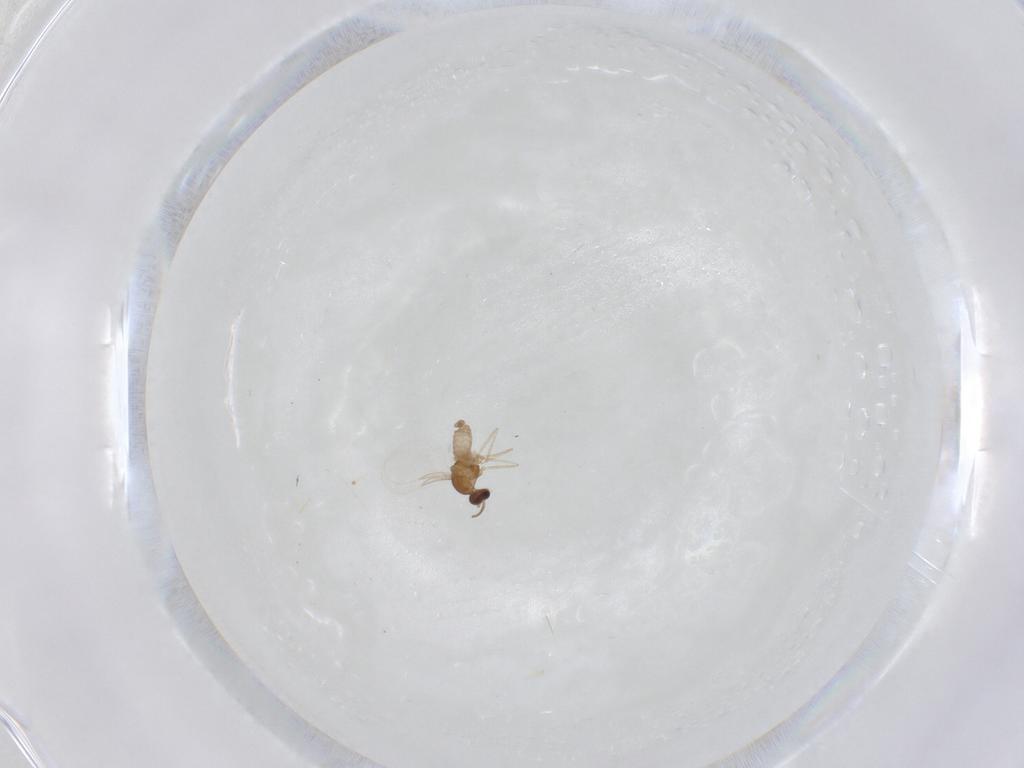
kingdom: Animalia
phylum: Arthropoda
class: Insecta
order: Diptera
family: Cecidomyiidae
